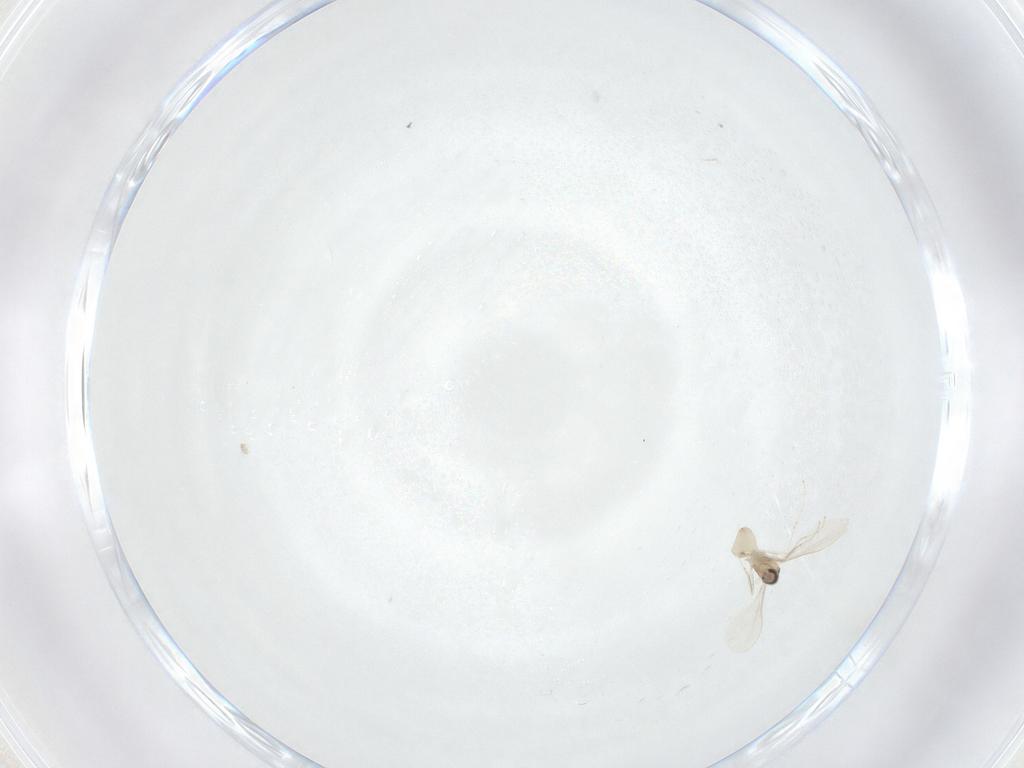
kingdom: Animalia
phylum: Arthropoda
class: Insecta
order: Diptera
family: Cecidomyiidae
